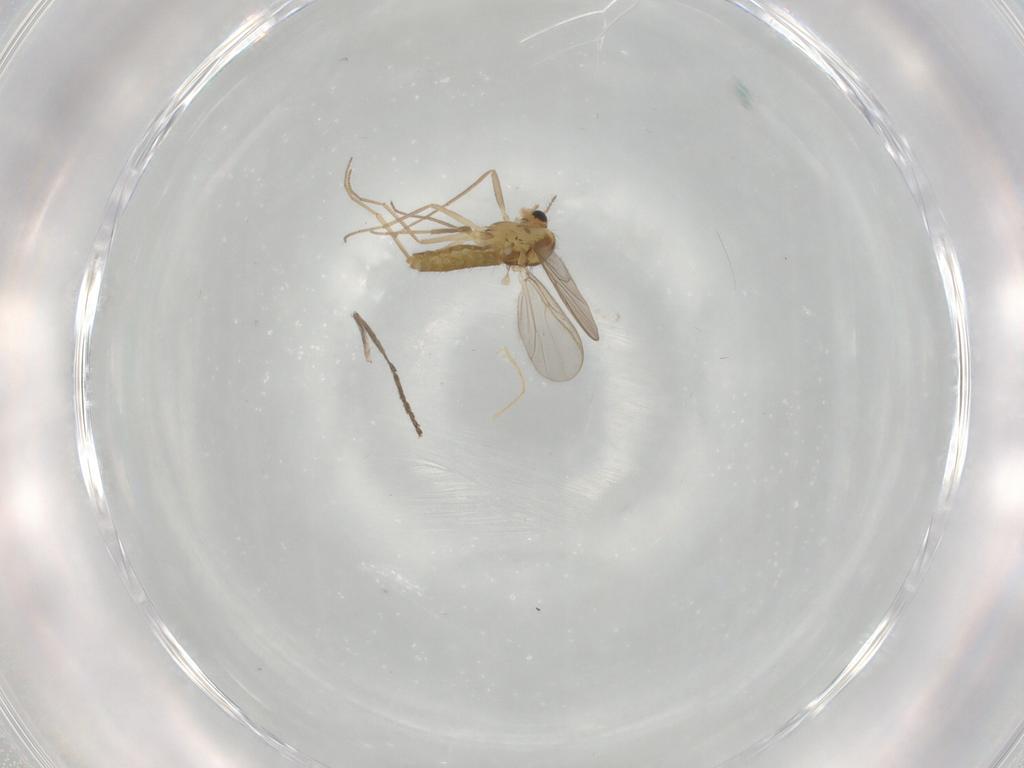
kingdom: Animalia
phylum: Arthropoda
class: Insecta
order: Diptera
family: Chironomidae
